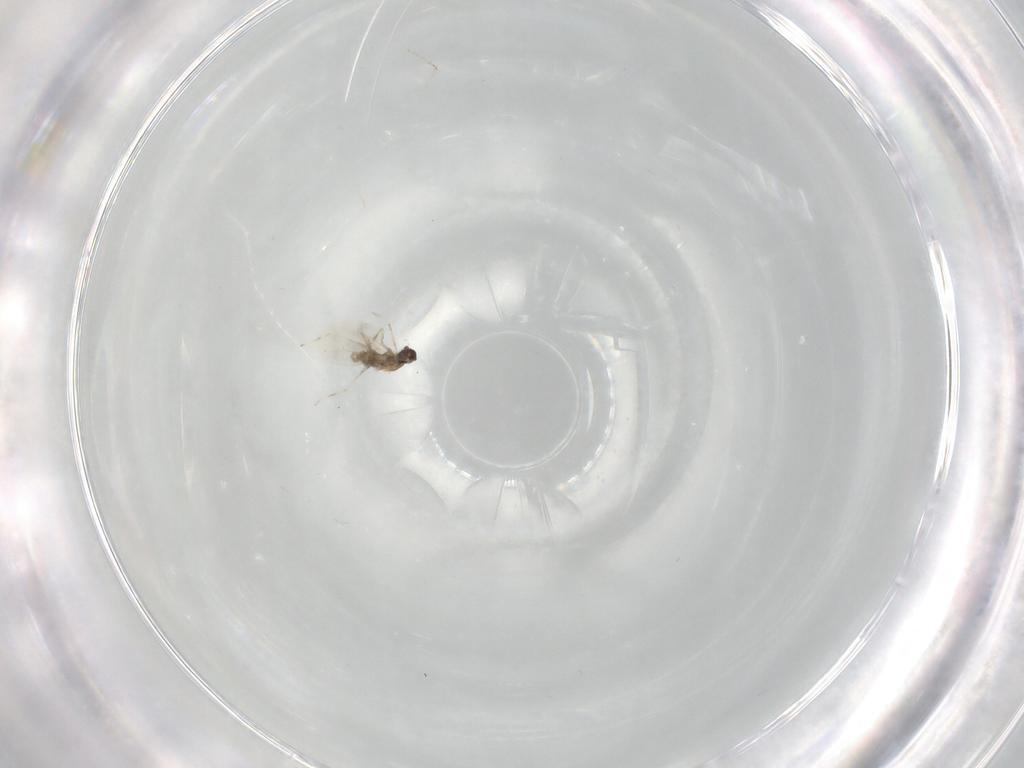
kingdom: Animalia
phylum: Arthropoda
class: Insecta
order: Diptera
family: Cecidomyiidae
